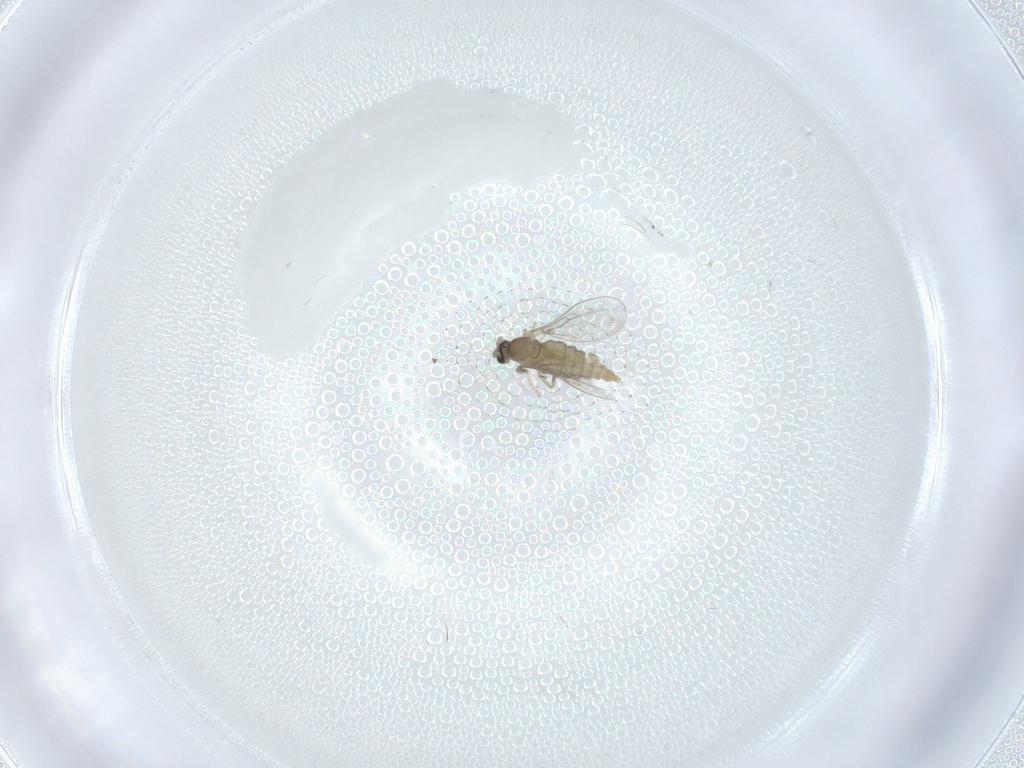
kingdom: Animalia
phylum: Arthropoda
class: Insecta
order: Diptera
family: Cecidomyiidae
